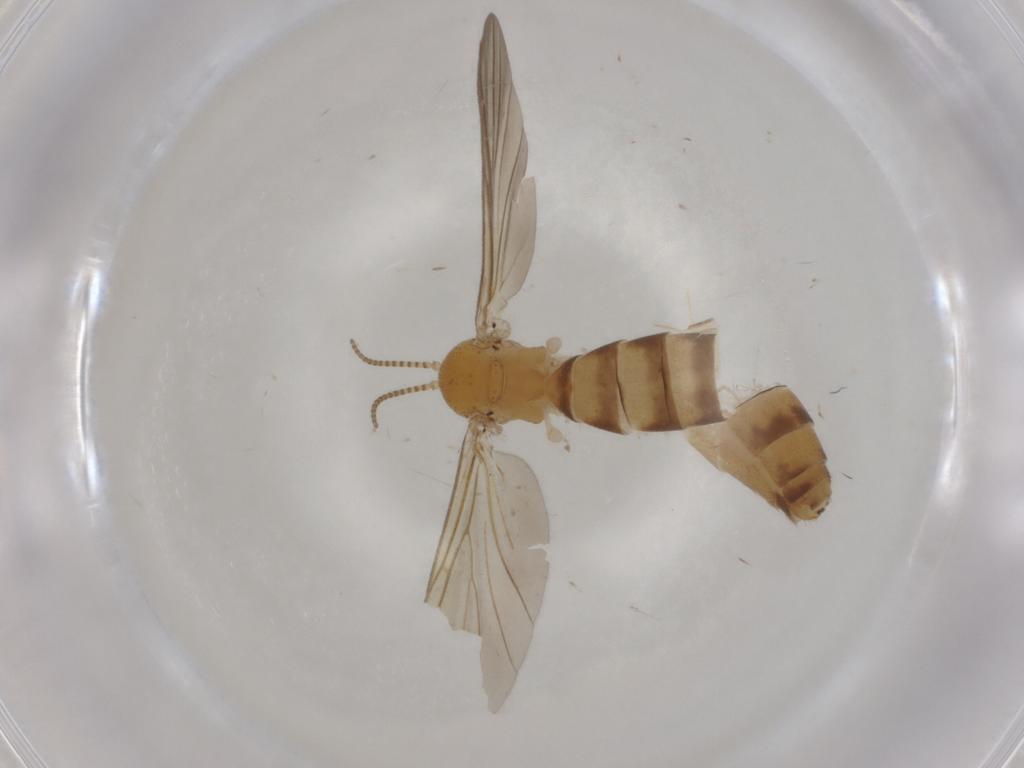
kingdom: Animalia
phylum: Arthropoda
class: Insecta
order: Diptera
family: Mycetophilidae
